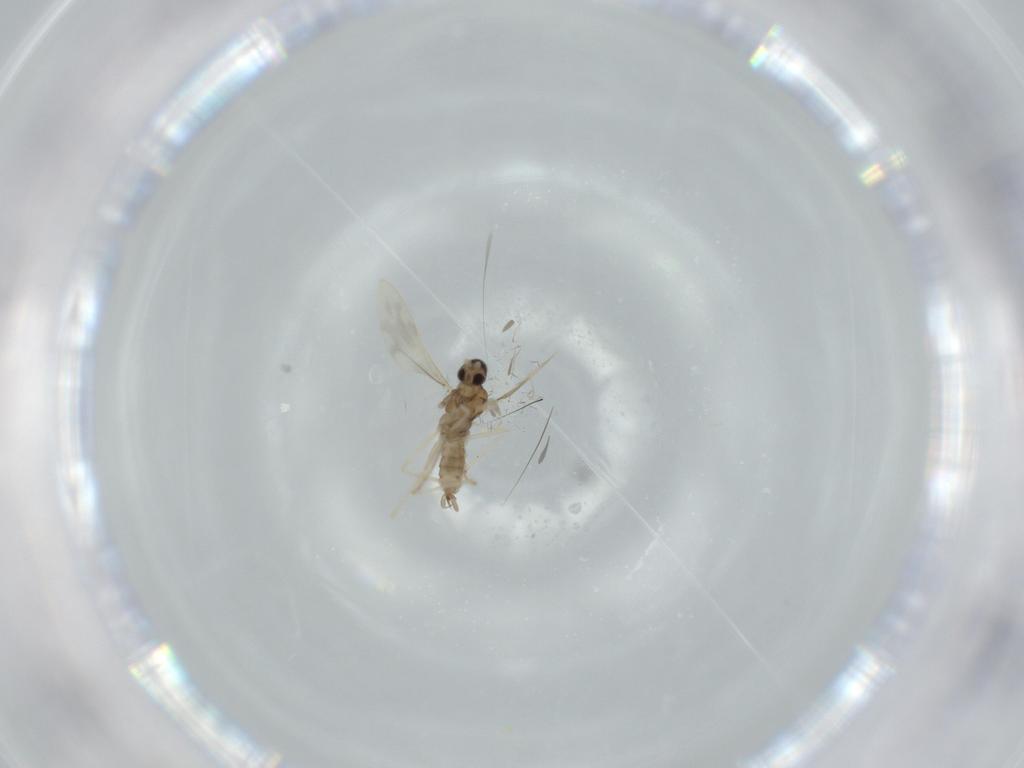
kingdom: Animalia
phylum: Arthropoda
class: Insecta
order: Diptera
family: Cecidomyiidae
